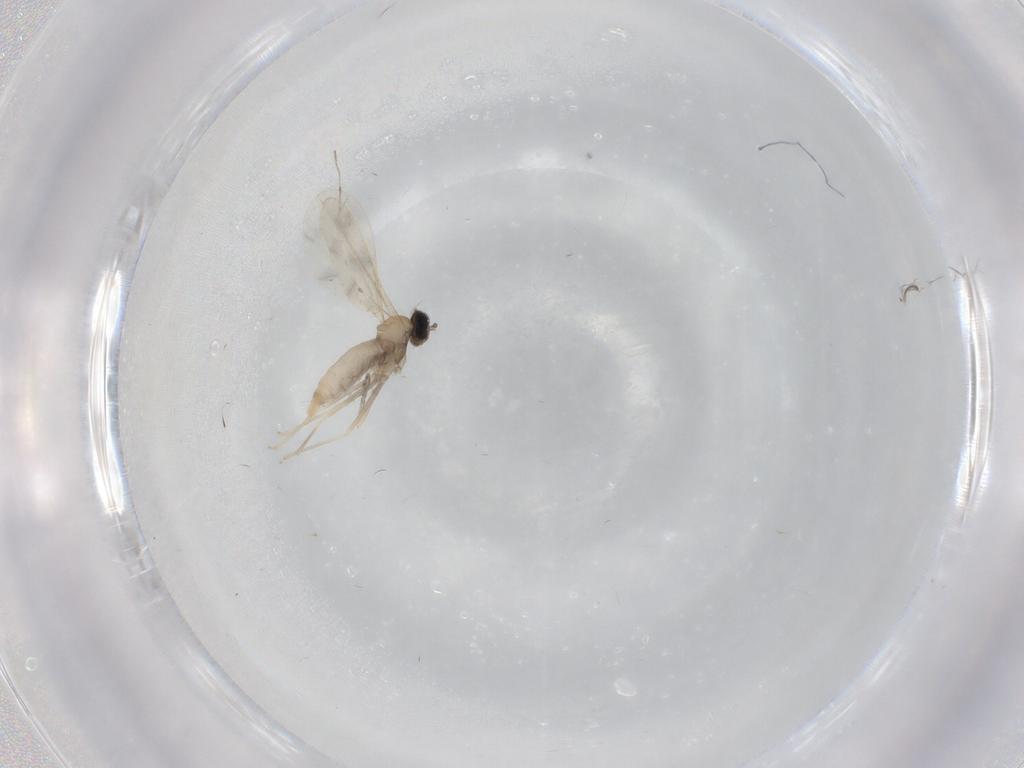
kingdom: Animalia
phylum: Arthropoda
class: Insecta
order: Diptera
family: Cecidomyiidae
